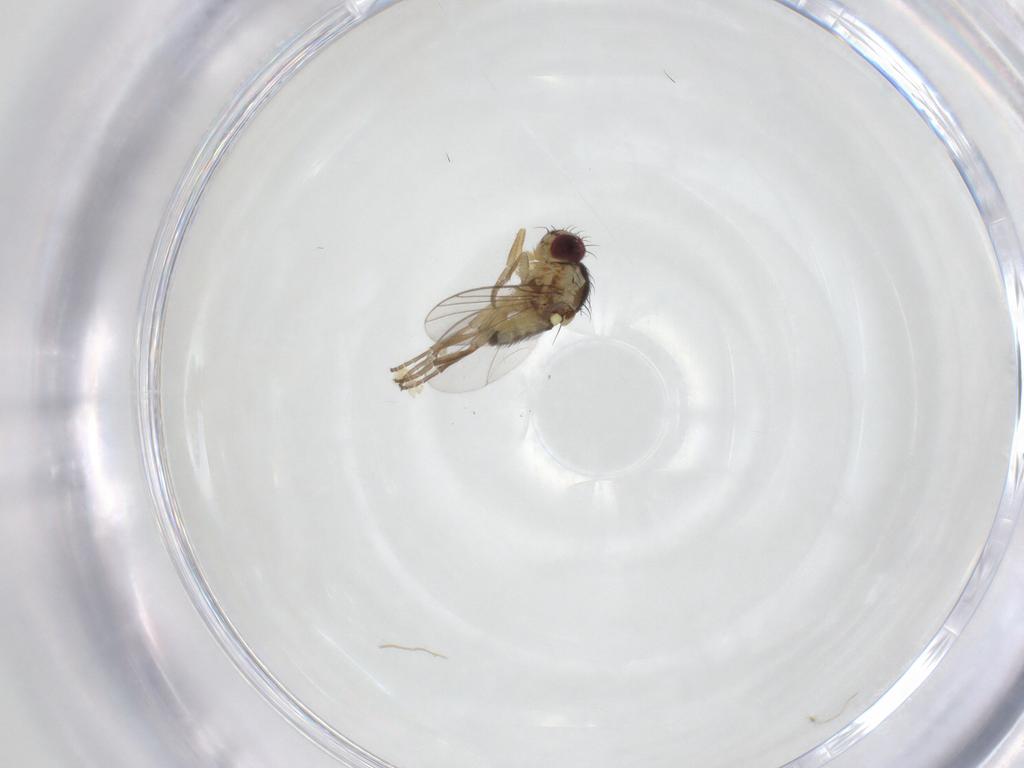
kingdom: Animalia
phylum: Arthropoda
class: Insecta
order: Diptera
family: Agromyzidae
